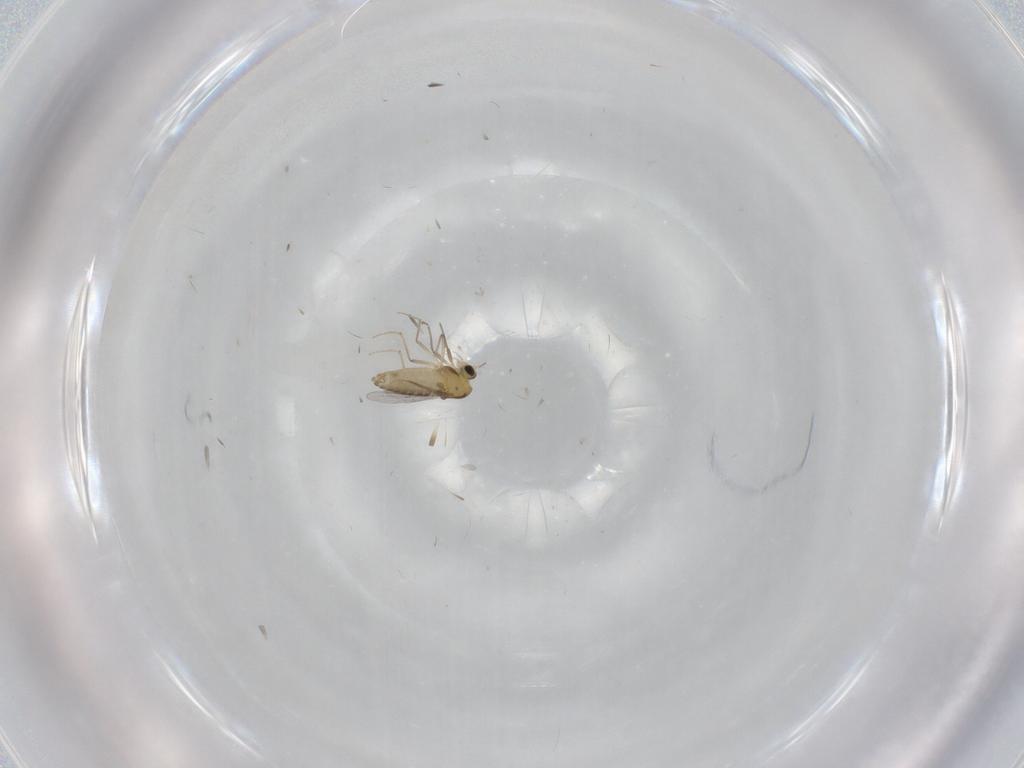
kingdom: Animalia
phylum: Arthropoda
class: Insecta
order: Diptera
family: Chironomidae
